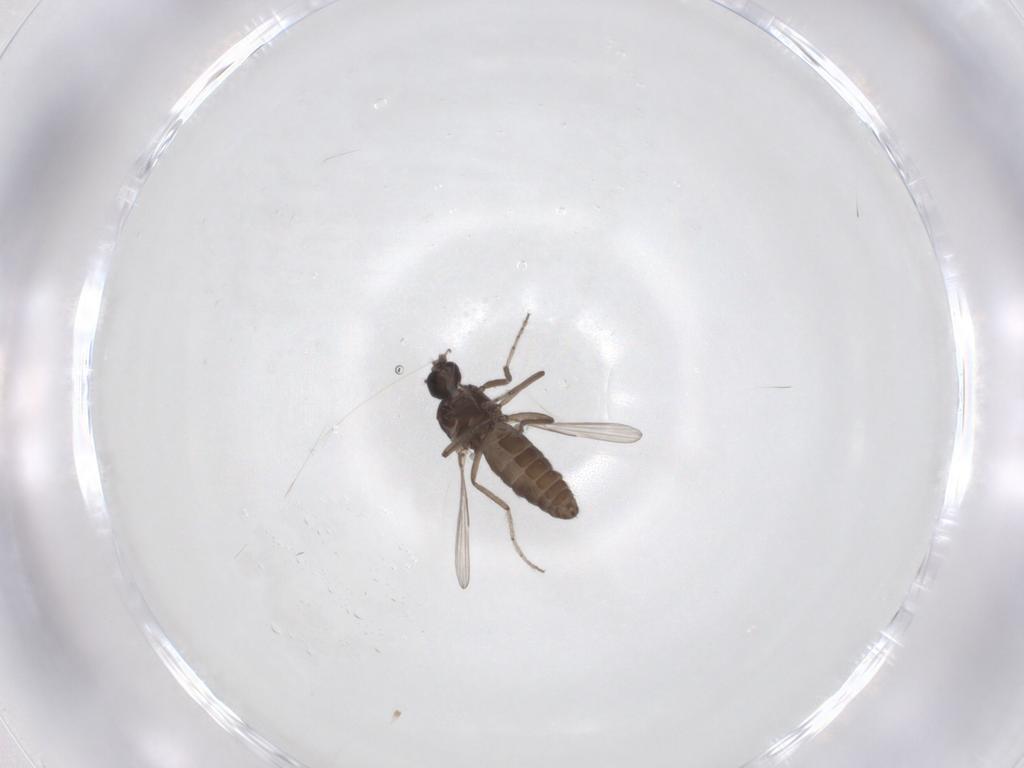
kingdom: Animalia
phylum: Arthropoda
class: Insecta
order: Diptera
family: Ceratopogonidae
